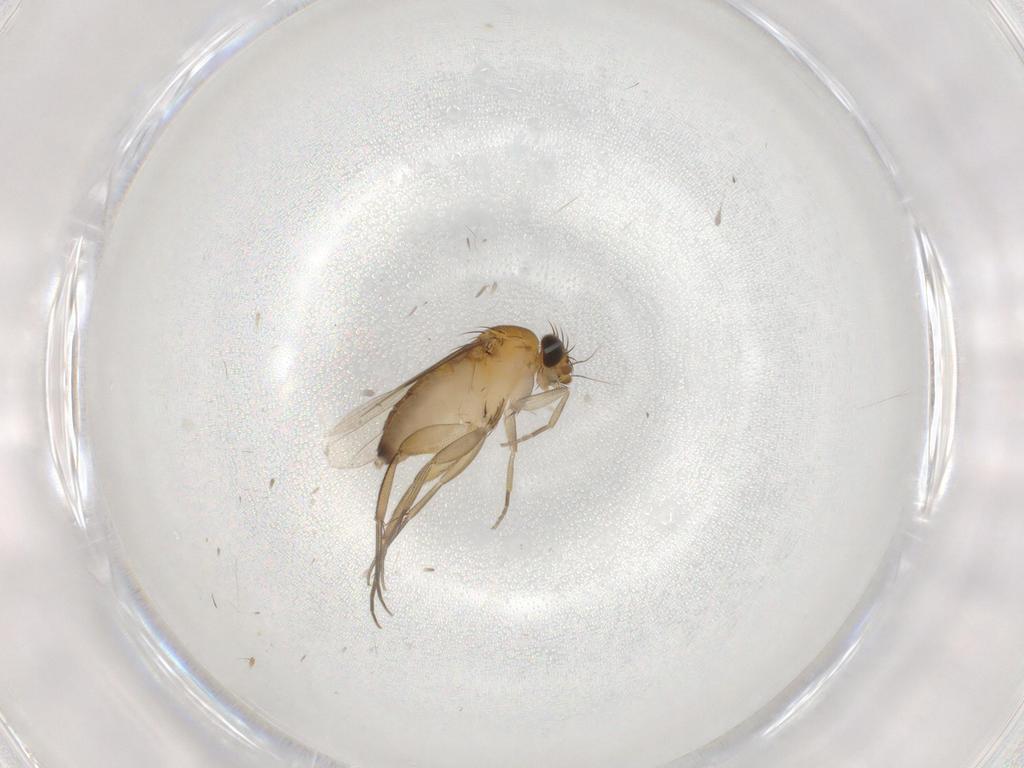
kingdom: Animalia
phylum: Arthropoda
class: Insecta
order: Diptera
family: Phoridae
